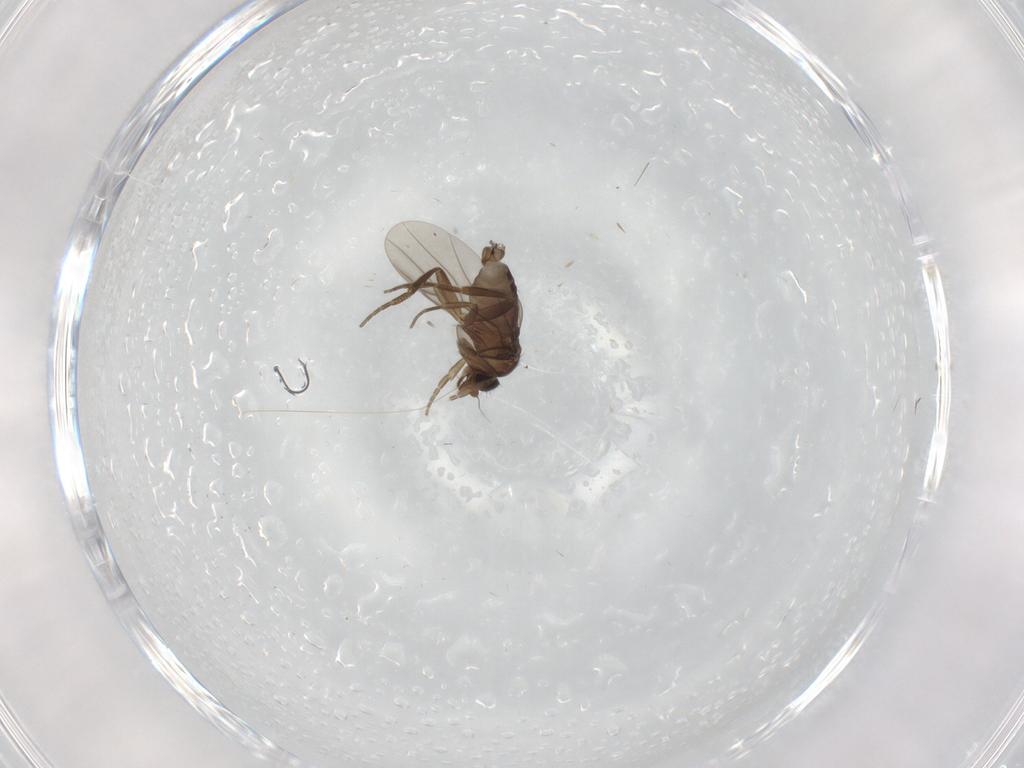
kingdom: Animalia
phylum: Arthropoda
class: Insecta
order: Diptera
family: Phoridae
